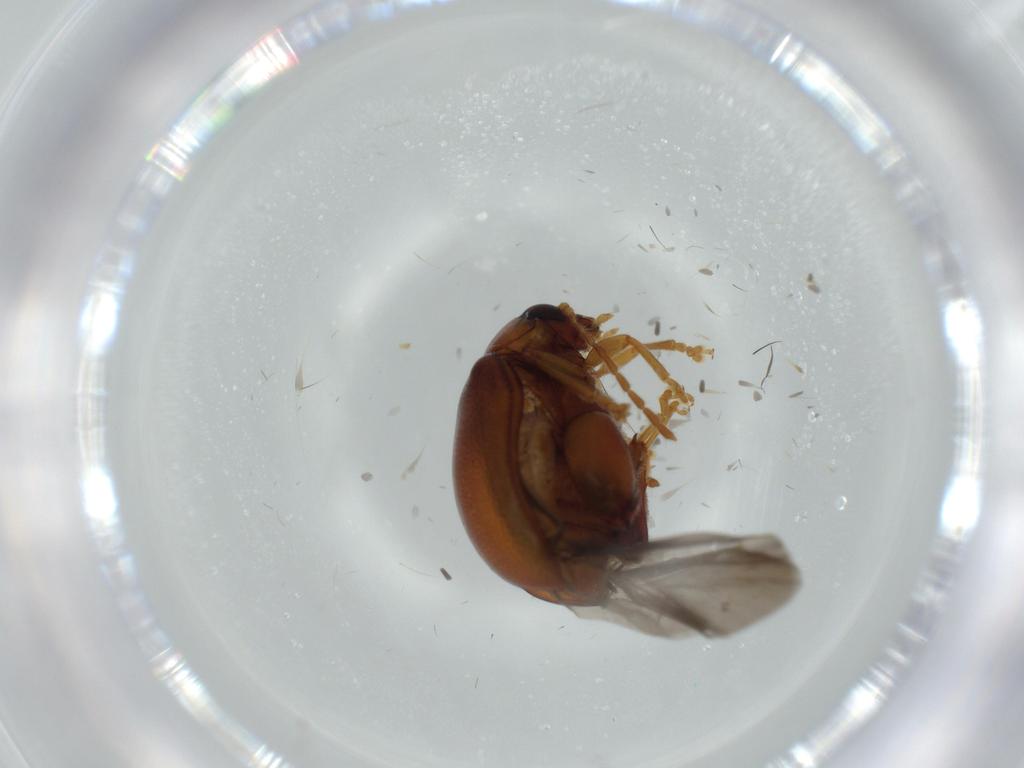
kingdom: Animalia
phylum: Arthropoda
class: Insecta
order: Coleoptera
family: Chrysomelidae
